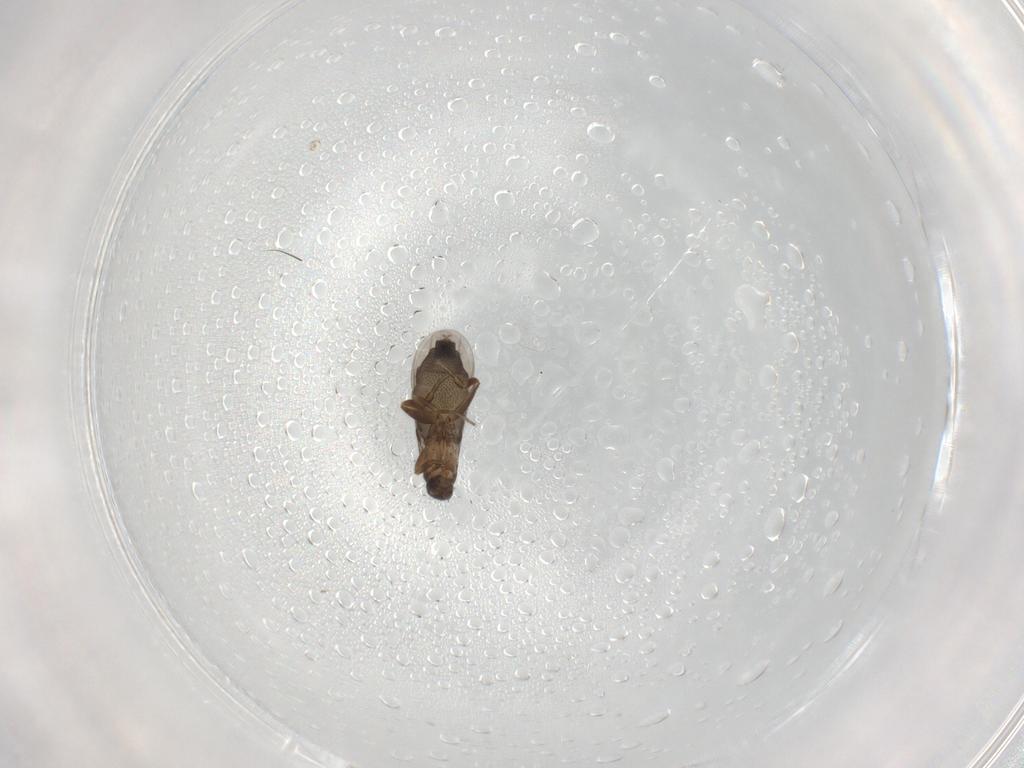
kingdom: Animalia
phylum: Arthropoda
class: Insecta
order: Diptera
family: Phoridae
